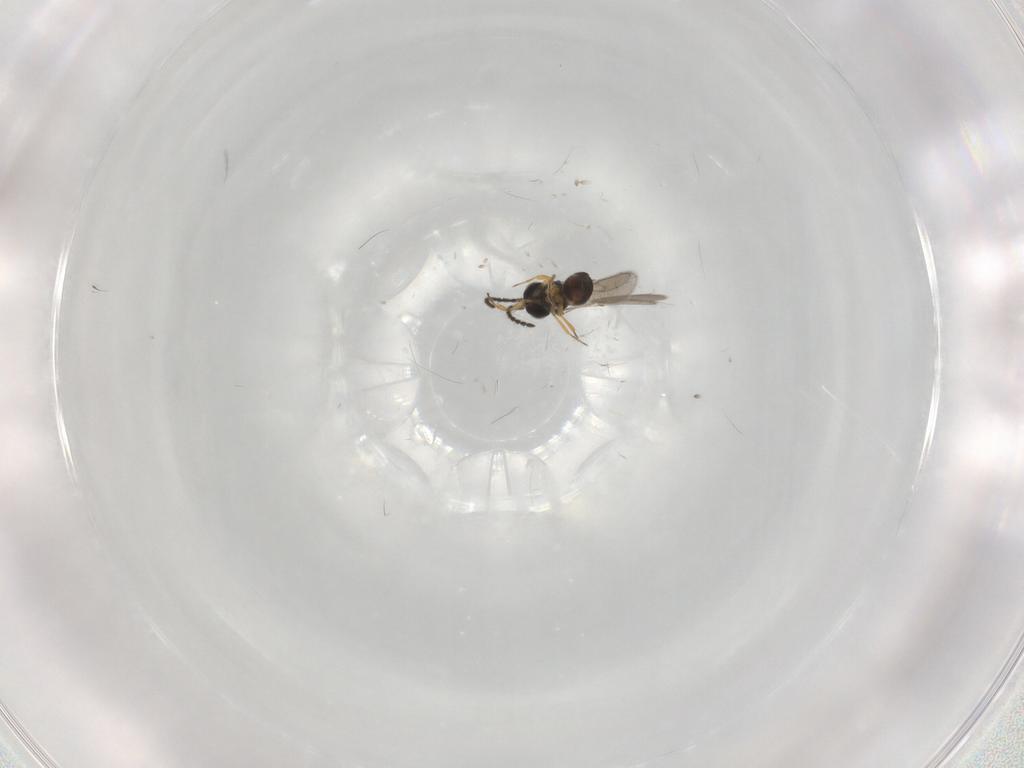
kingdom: Animalia
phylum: Arthropoda
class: Insecta
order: Hymenoptera
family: Scelionidae
